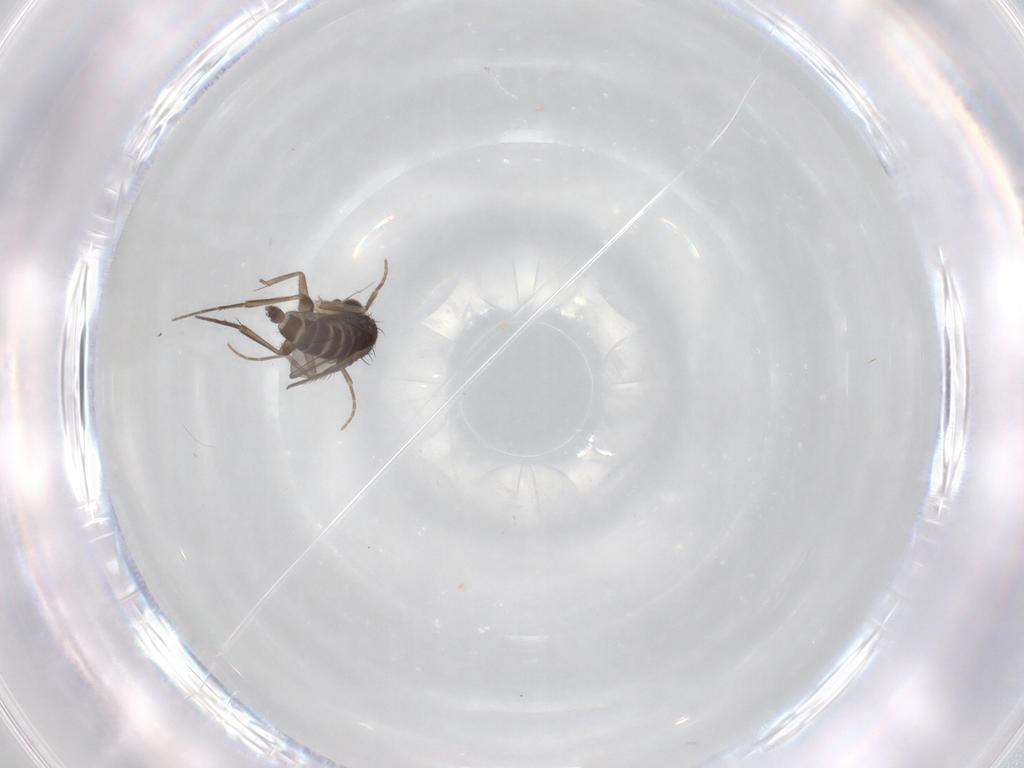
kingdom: Animalia
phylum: Arthropoda
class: Insecta
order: Diptera
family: Phoridae
